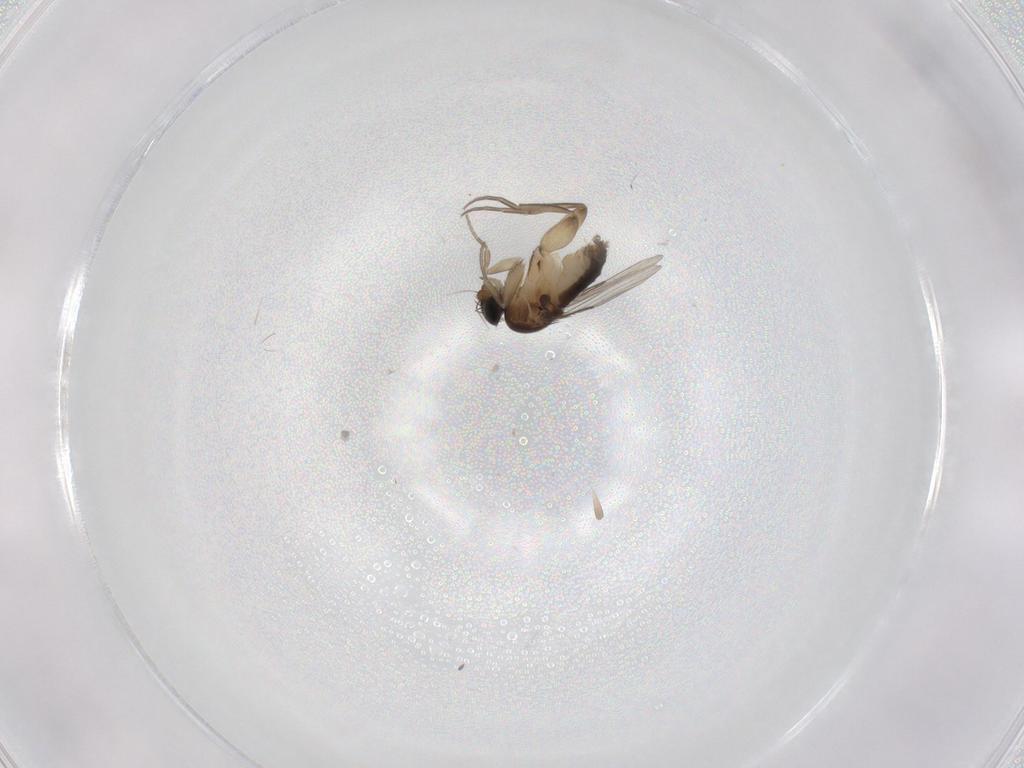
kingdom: Animalia
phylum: Arthropoda
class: Insecta
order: Diptera
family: Phoridae
